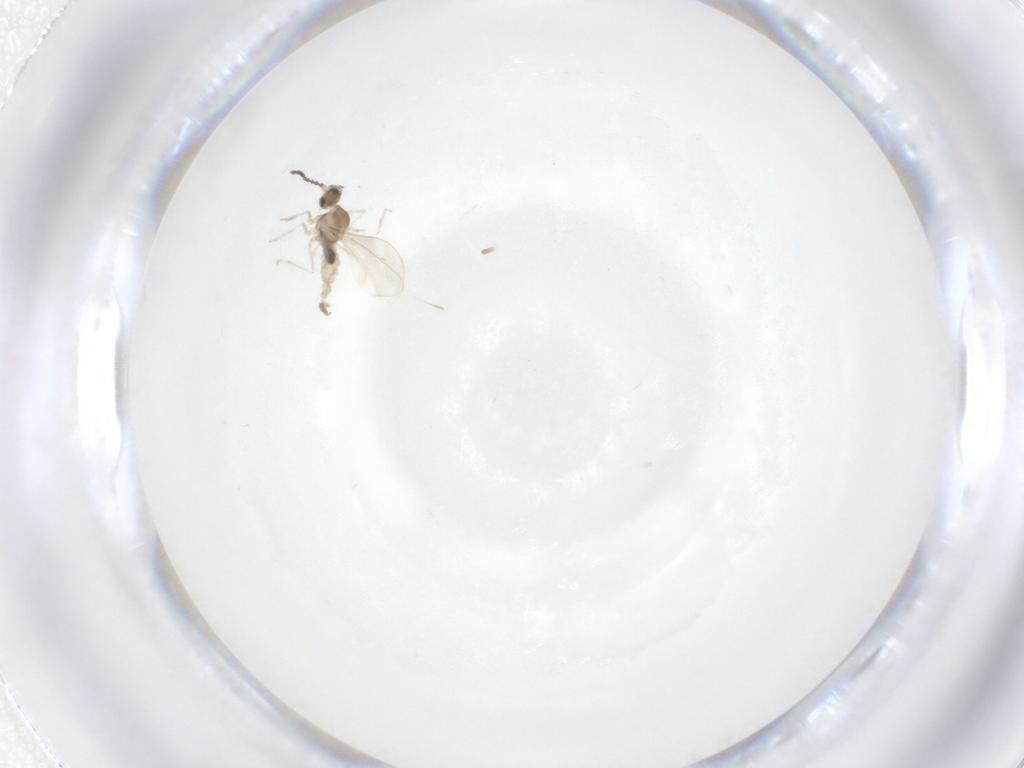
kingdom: Animalia
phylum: Arthropoda
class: Insecta
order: Diptera
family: Cecidomyiidae
